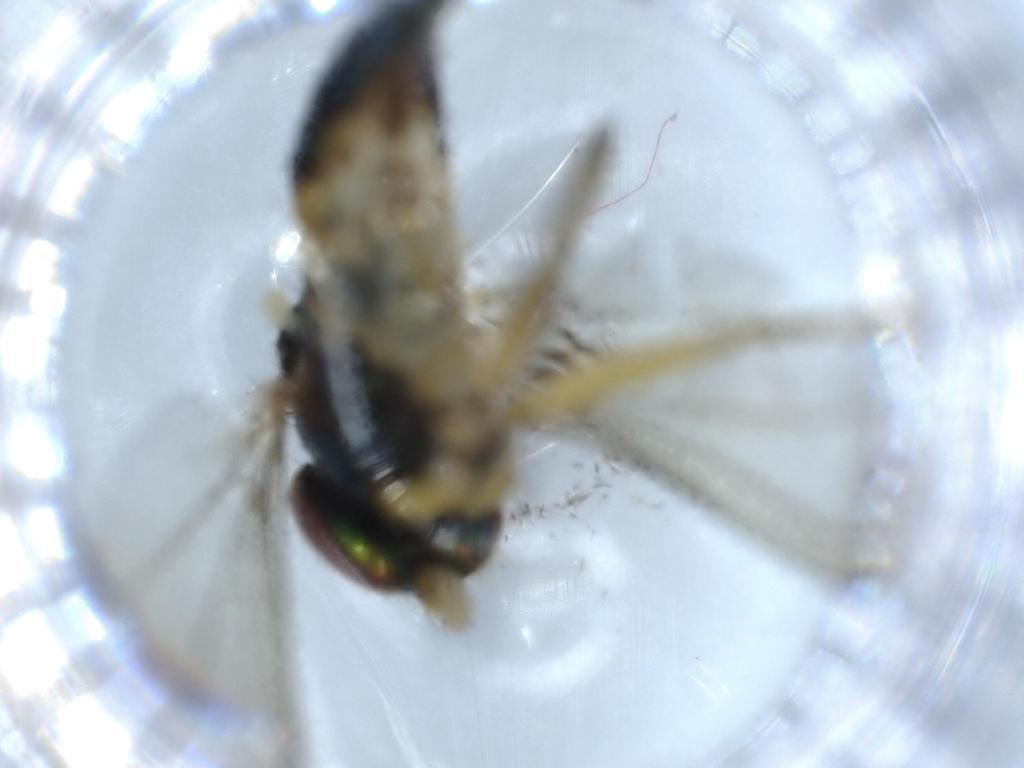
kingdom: Animalia
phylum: Arthropoda
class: Insecta
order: Diptera
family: Dolichopodidae
